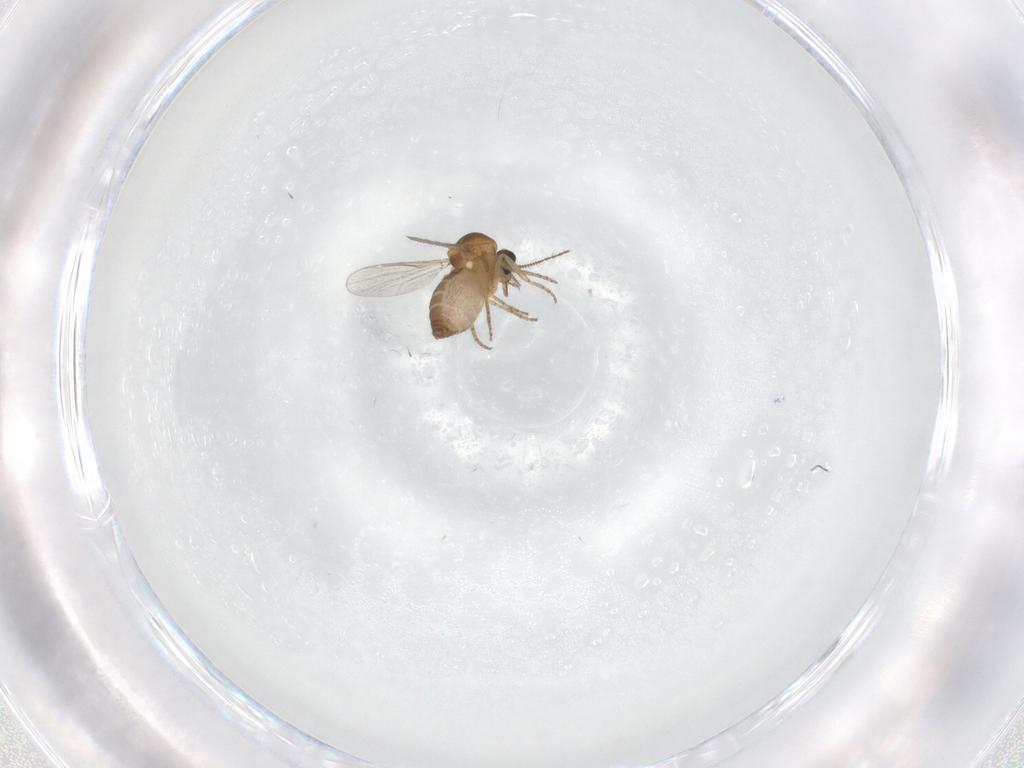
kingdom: Animalia
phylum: Arthropoda
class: Insecta
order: Diptera
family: Ceratopogonidae
